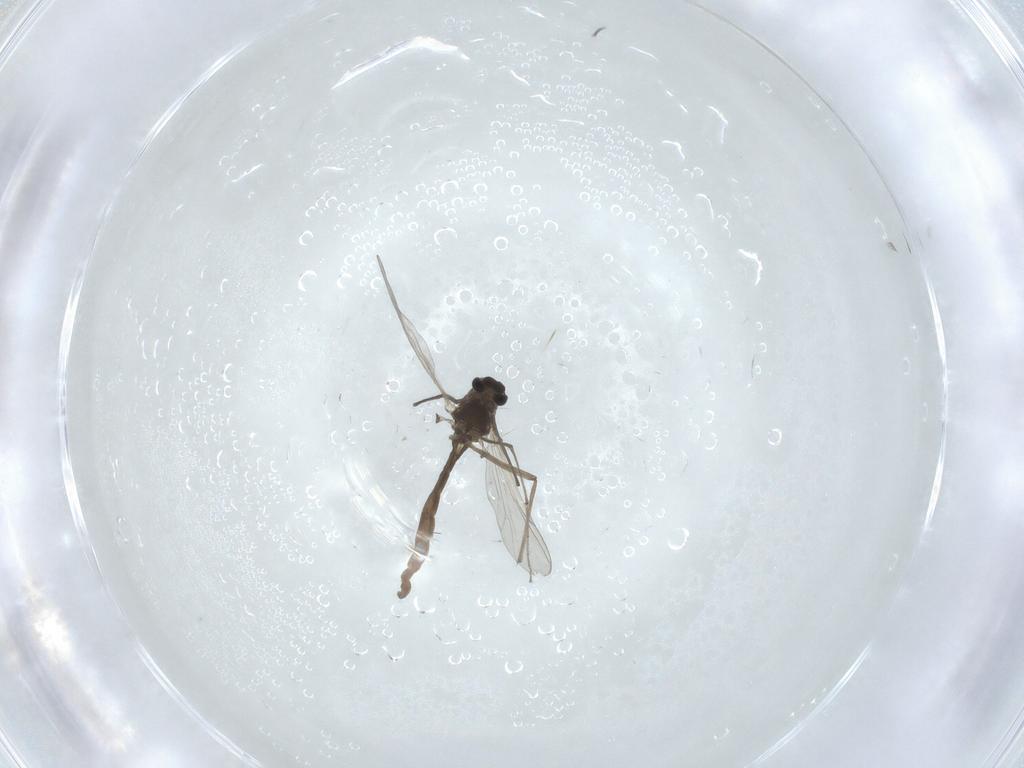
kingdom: Animalia
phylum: Arthropoda
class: Insecta
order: Diptera
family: Chironomidae
